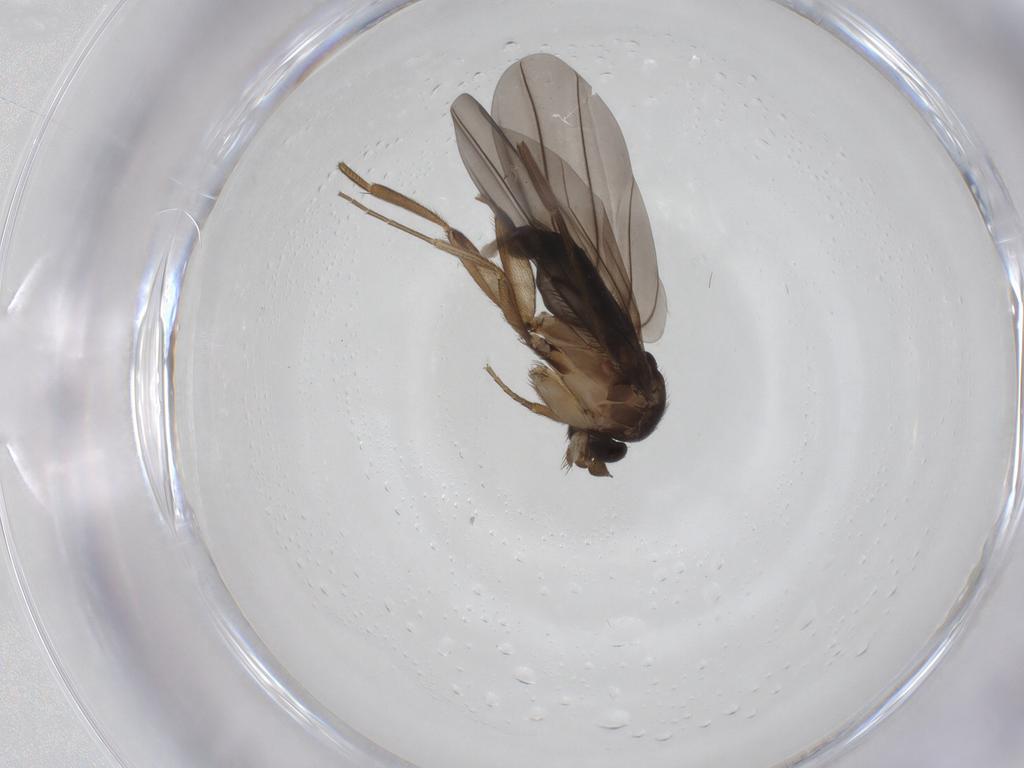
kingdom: Animalia
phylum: Arthropoda
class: Insecta
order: Diptera
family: Phoridae
